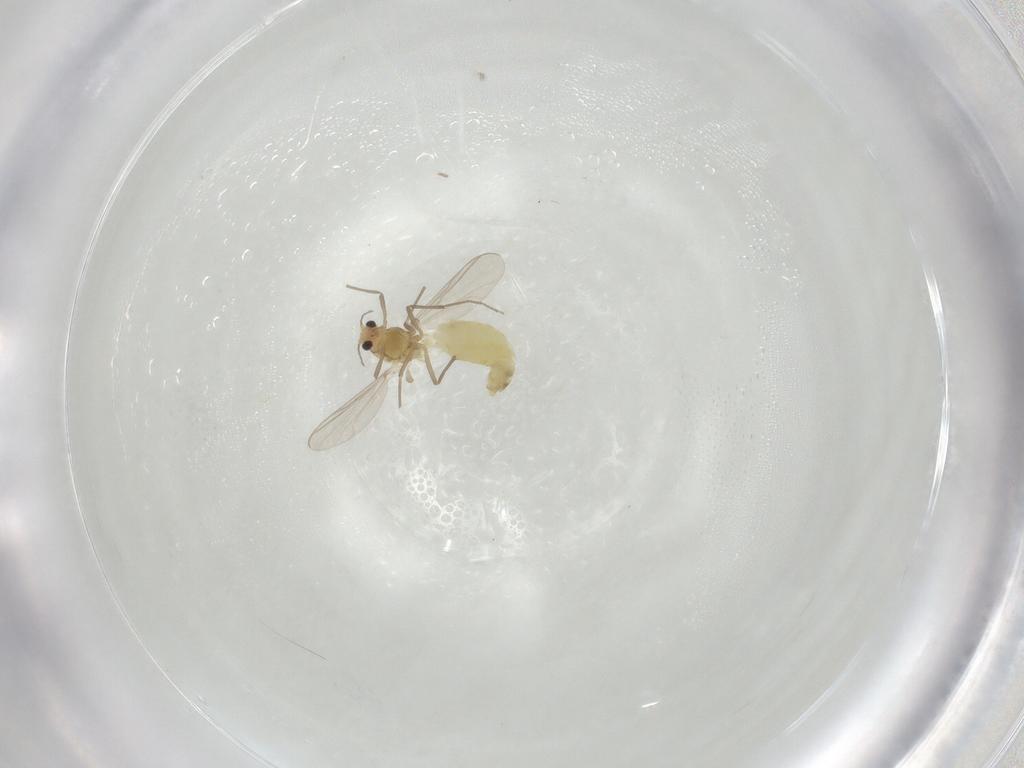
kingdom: Animalia
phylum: Arthropoda
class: Insecta
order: Diptera
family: Chironomidae
